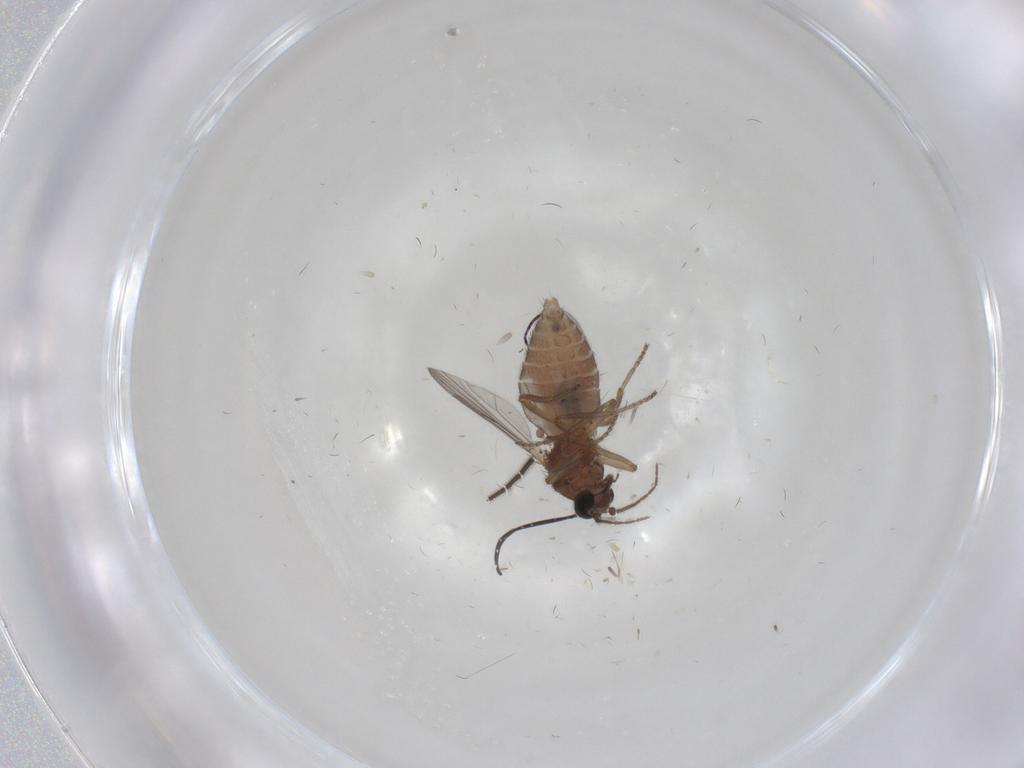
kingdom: Animalia
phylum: Arthropoda
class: Insecta
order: Diptera
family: Ceratopogonidae
